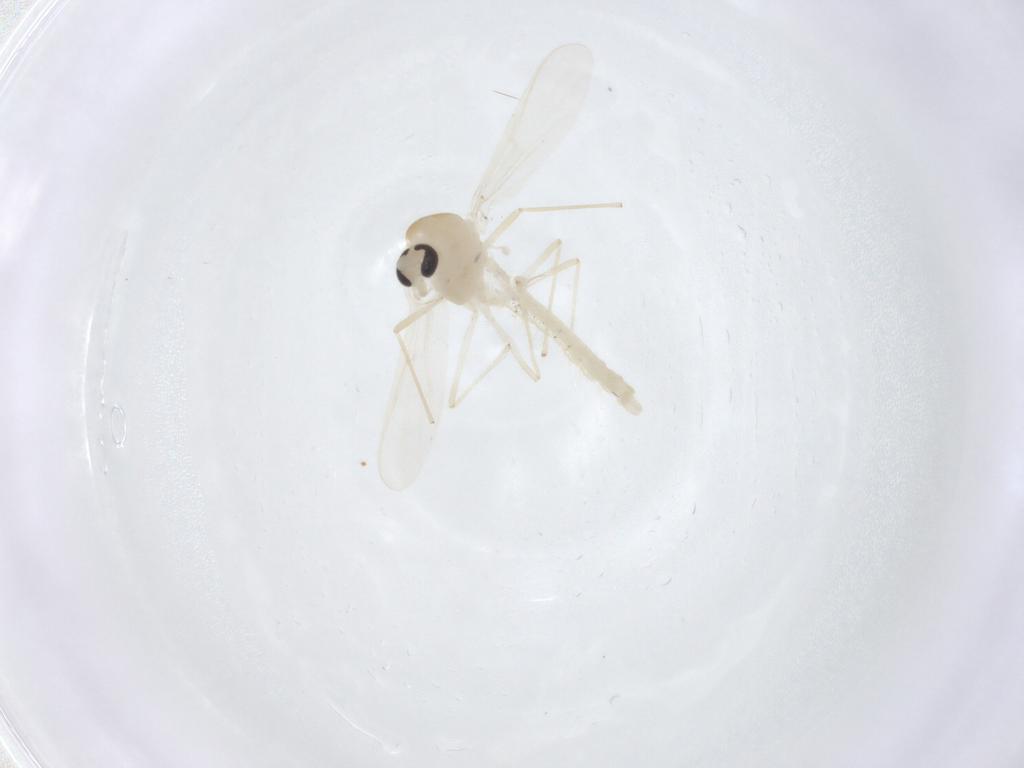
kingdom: Animalia
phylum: Arthropoda
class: Insecta
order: Diptera
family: Chironomidae
